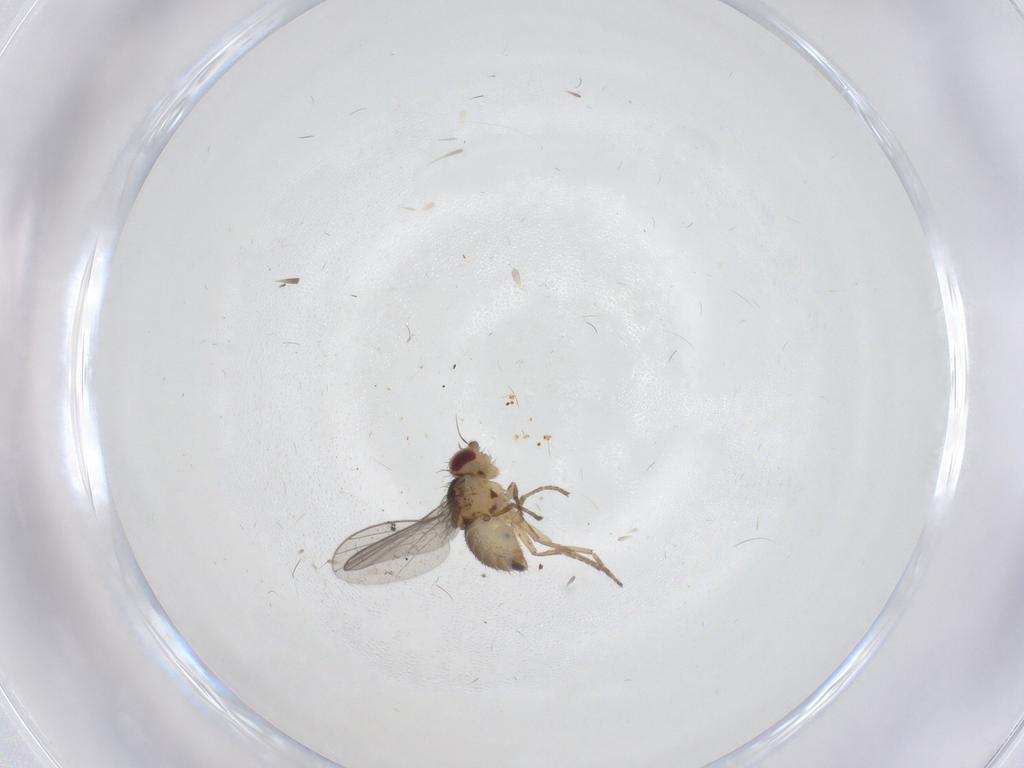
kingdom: Animalia
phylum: Arthropoda
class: Insecta
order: Diptera
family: Agromyzidae
